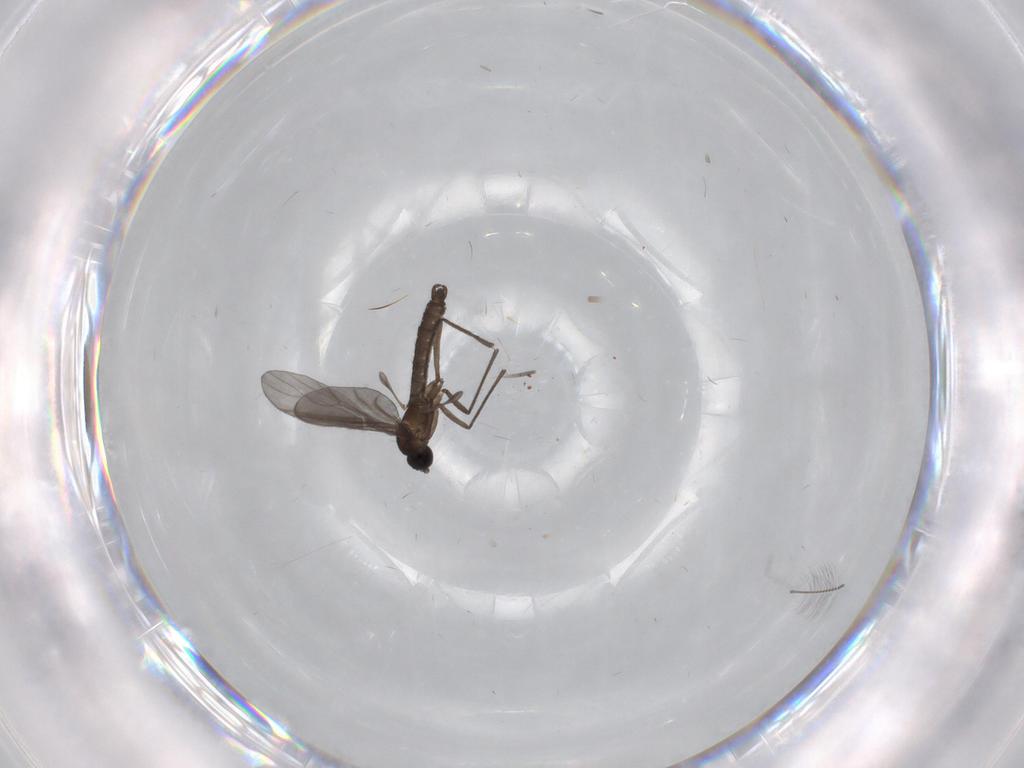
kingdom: Animalia
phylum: Arthropoda
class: Insecta
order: Diptera
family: Sciaridae
